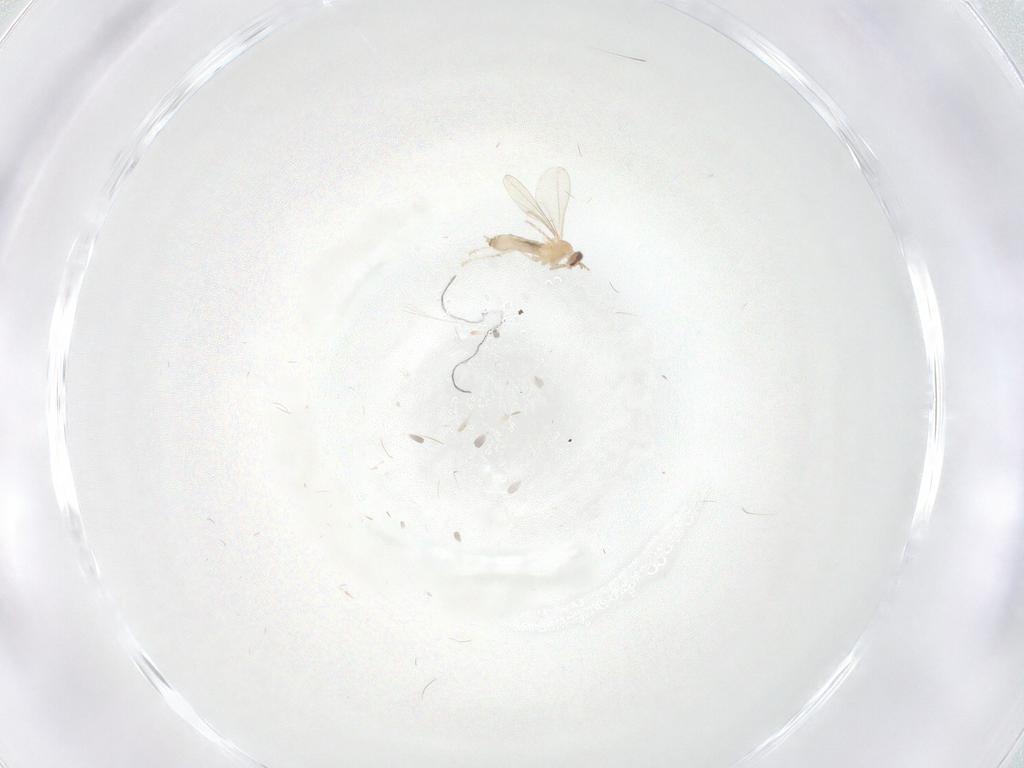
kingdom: Animalia
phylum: Arthropoda
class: Insecta
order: Diptera
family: Cecidomyiidae
